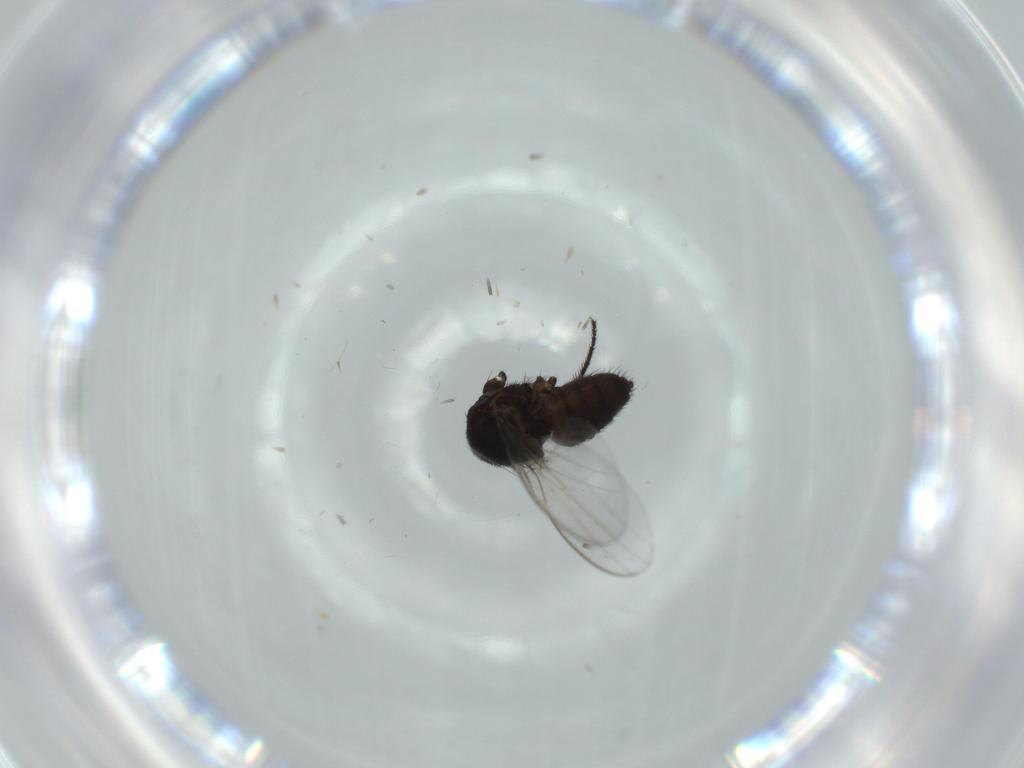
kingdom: Animalia
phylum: Arthropoda
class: Insecta
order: Diptera
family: Milichiidae
